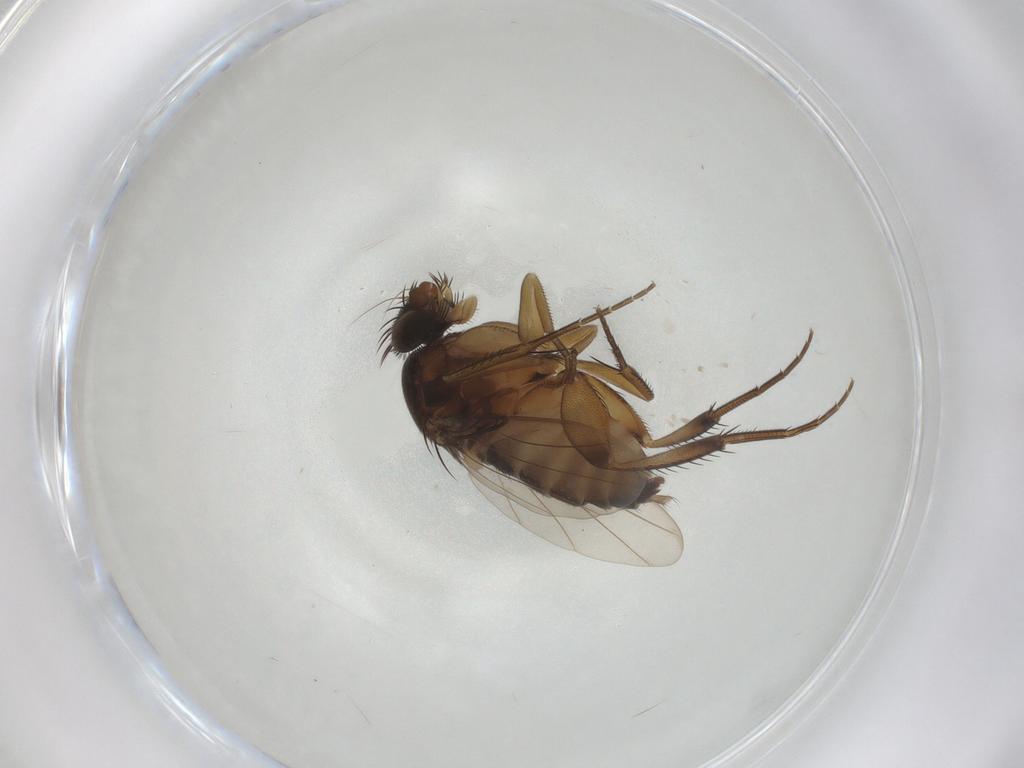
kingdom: Animalia
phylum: Arthropoda
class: Insecta
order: Diptera
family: Phoridae
